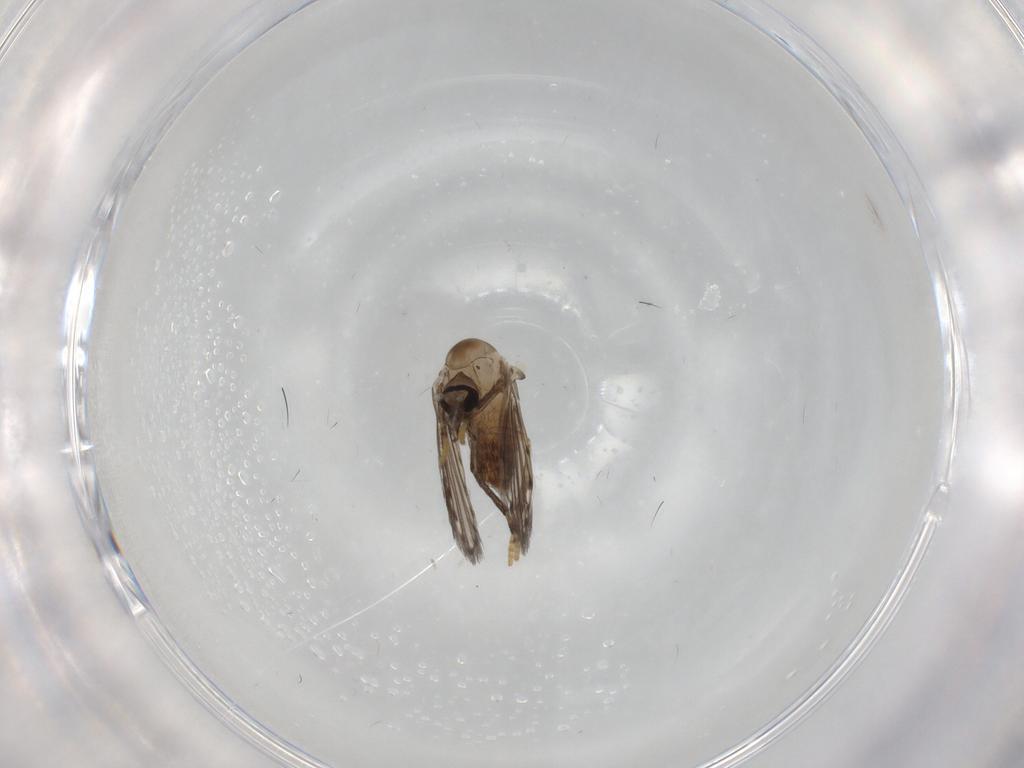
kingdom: Animalia
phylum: Arthropoda
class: Insecta
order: Diptera
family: Psychodidae
